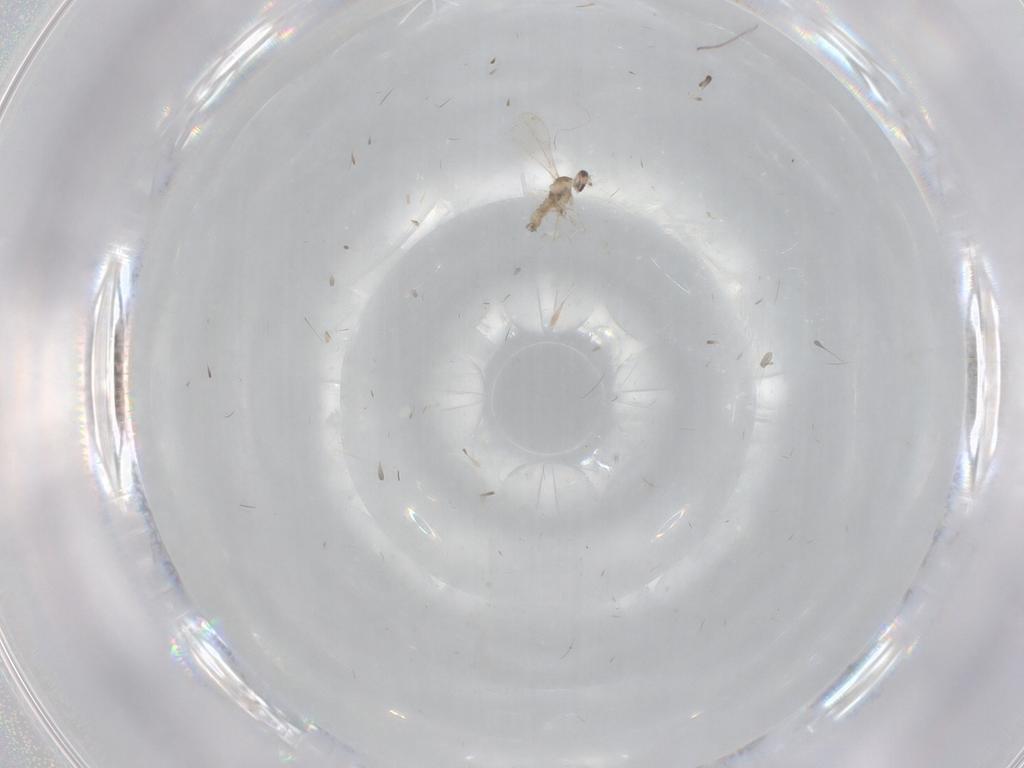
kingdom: Animalia
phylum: Arthropoda
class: Insecta
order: Diptera
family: Cecidomyiidae
